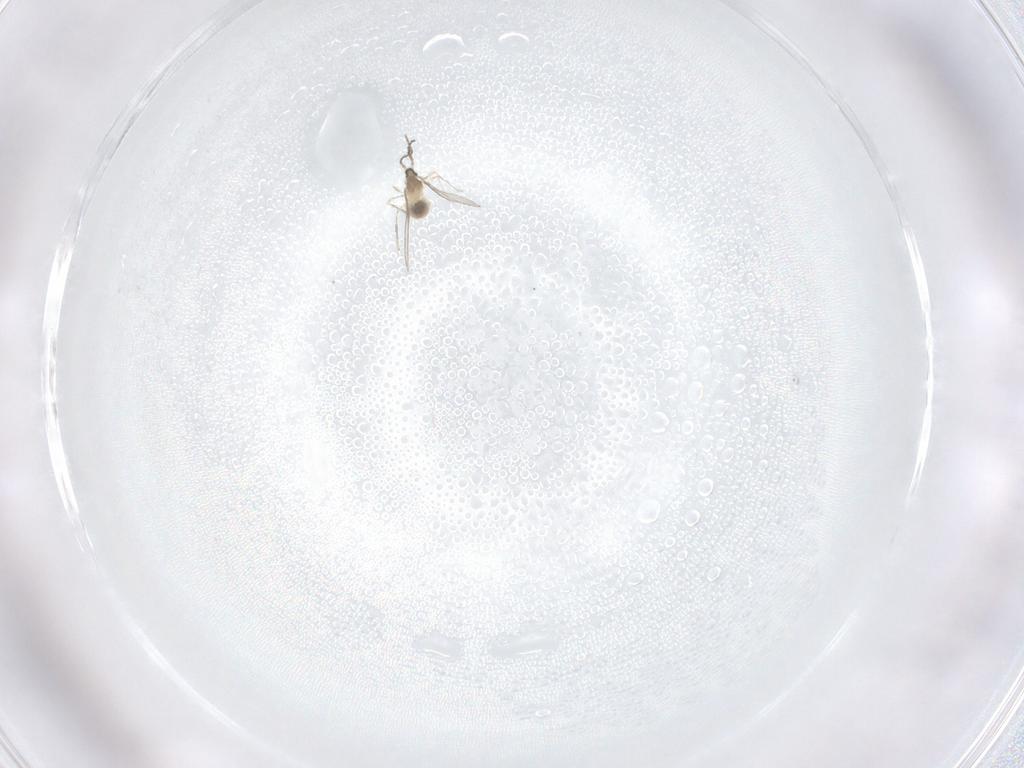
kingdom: Animalia
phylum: Arthropoda
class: Insecta
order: Diptera
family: Cecidomyiidae
